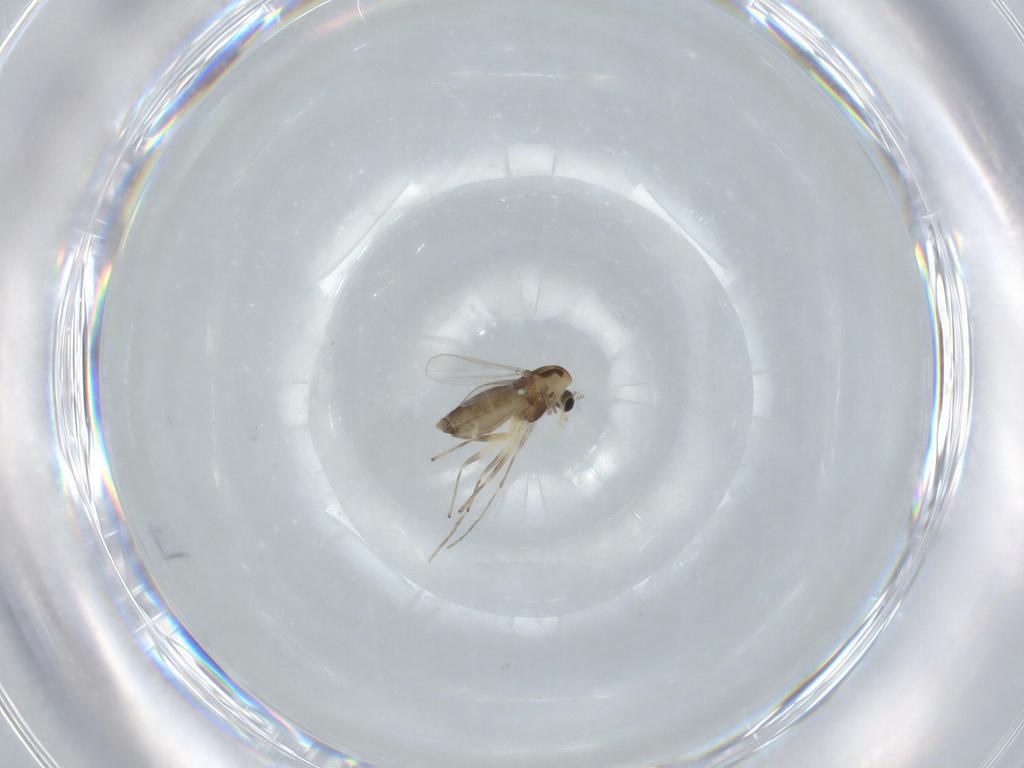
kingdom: Animalia
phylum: Arthropoda
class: Insecta
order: Diptera
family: Chironomidae
